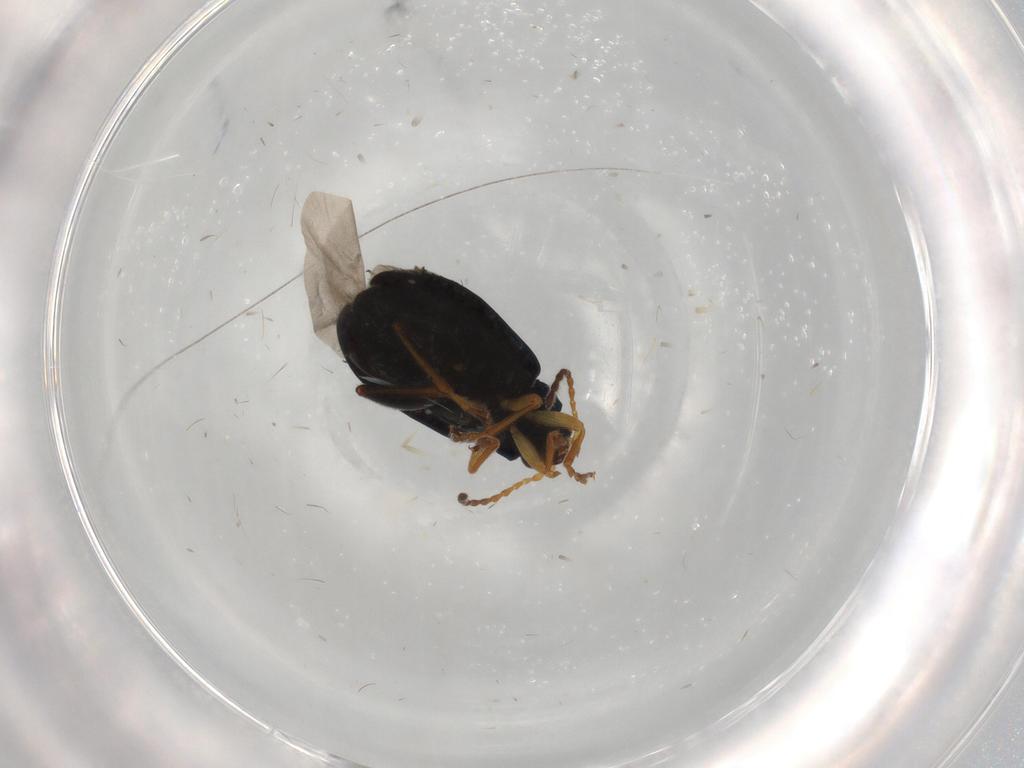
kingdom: Animalia
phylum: Arthropoda
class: Insecta
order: Coleoptera
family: Chrysomelidae
